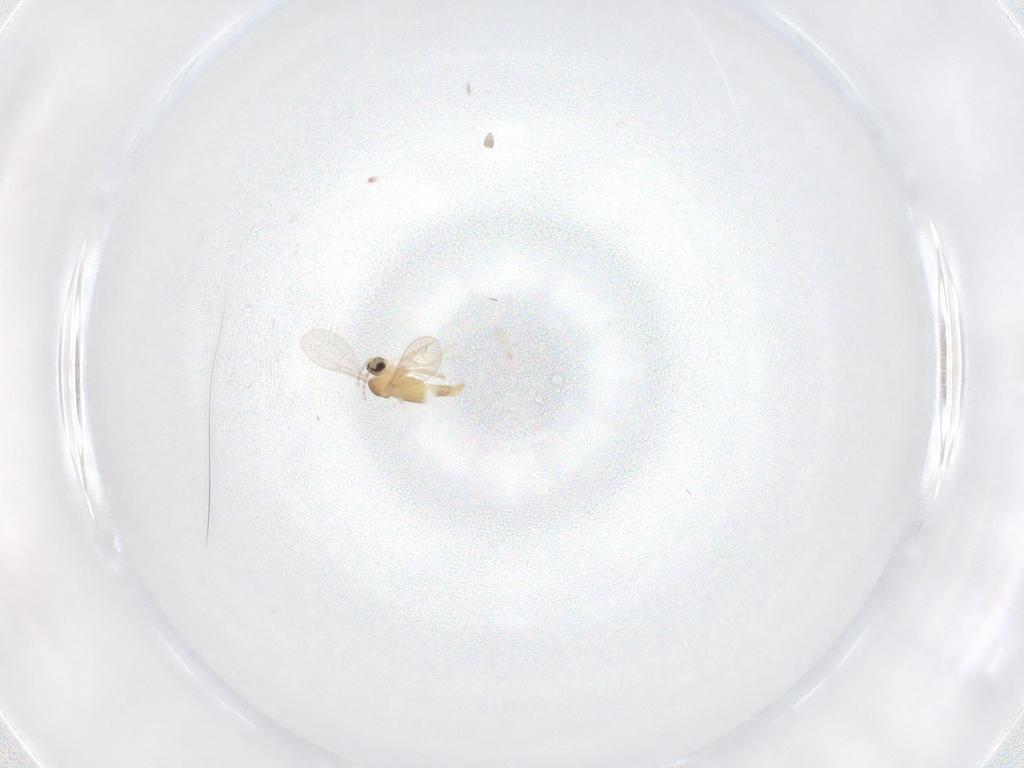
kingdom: Animalia
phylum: Arthropoda
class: Insecta
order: Diptera
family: Cecidomyiidae
